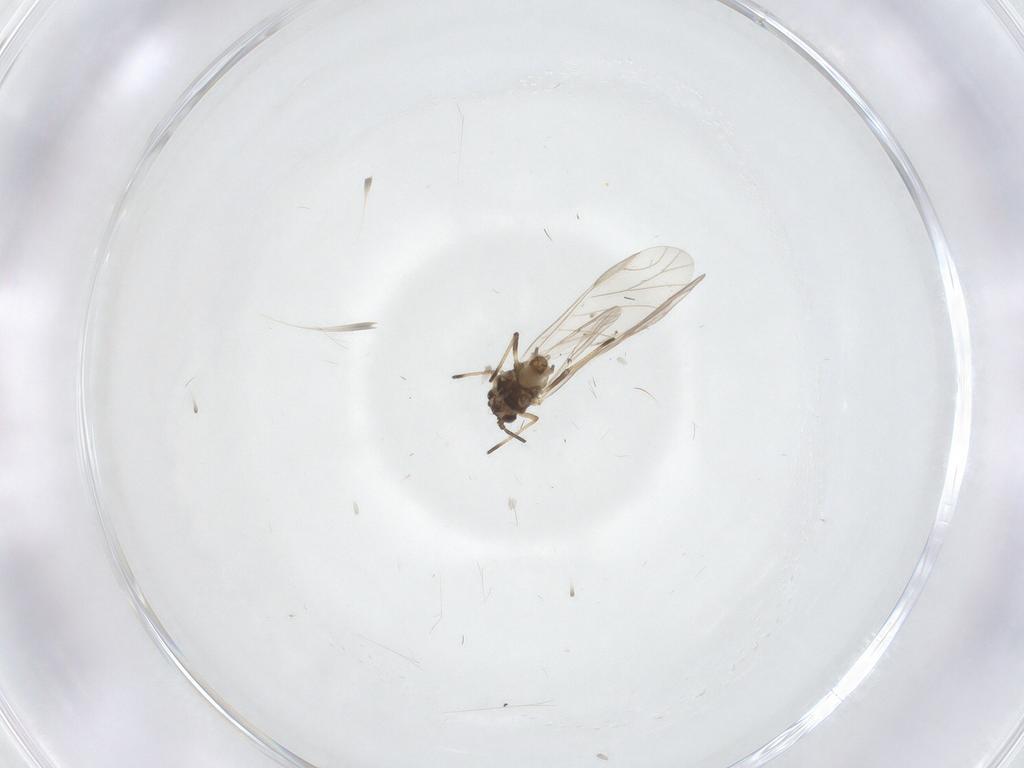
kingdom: Animalia
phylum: Arthropoda
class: Insecta
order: Hemiptera
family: Aphididae
